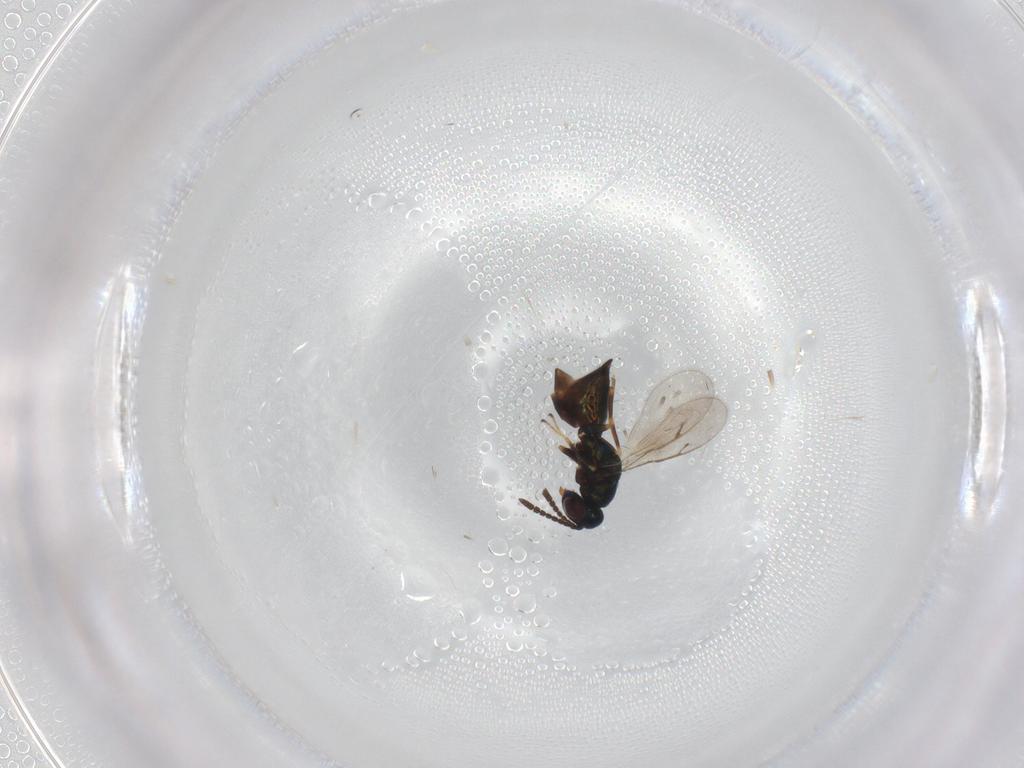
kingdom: Animalia
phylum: Arthropoda
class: Insecta
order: Hymenoptera
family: Pteromalidae
